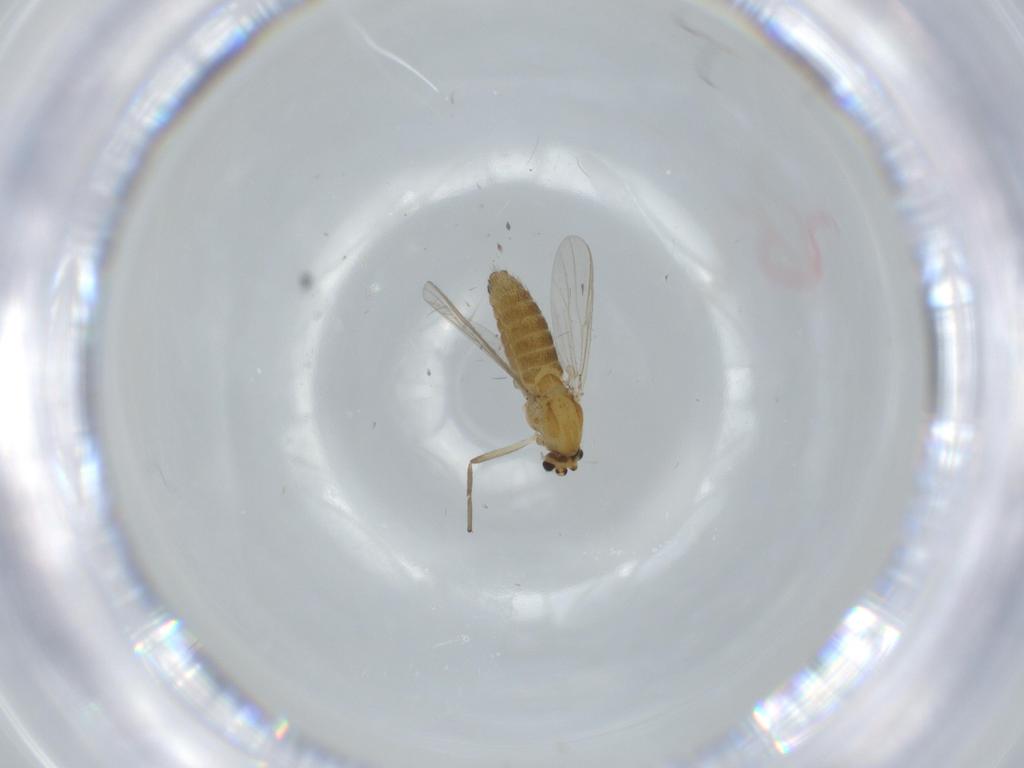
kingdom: Animalia
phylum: Arthropoda
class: Insecta
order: Diptera
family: Chironomidae
